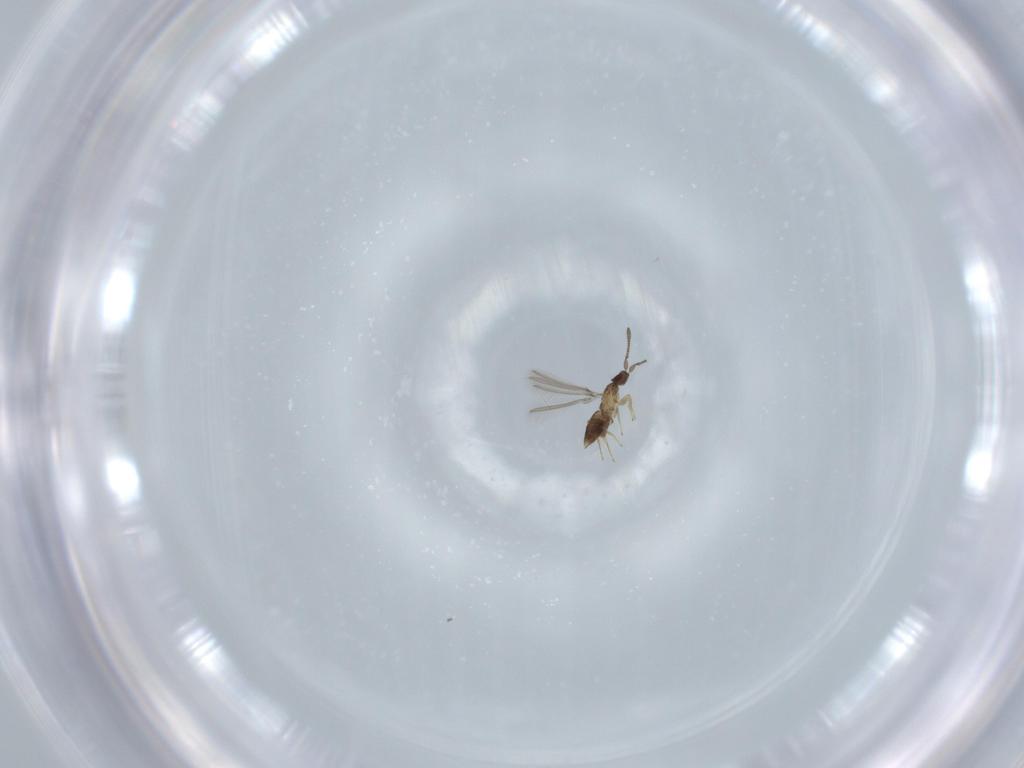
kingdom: Animalia
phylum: Arthropoda
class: Insecta
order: Hymenoptera
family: Mymaridae
